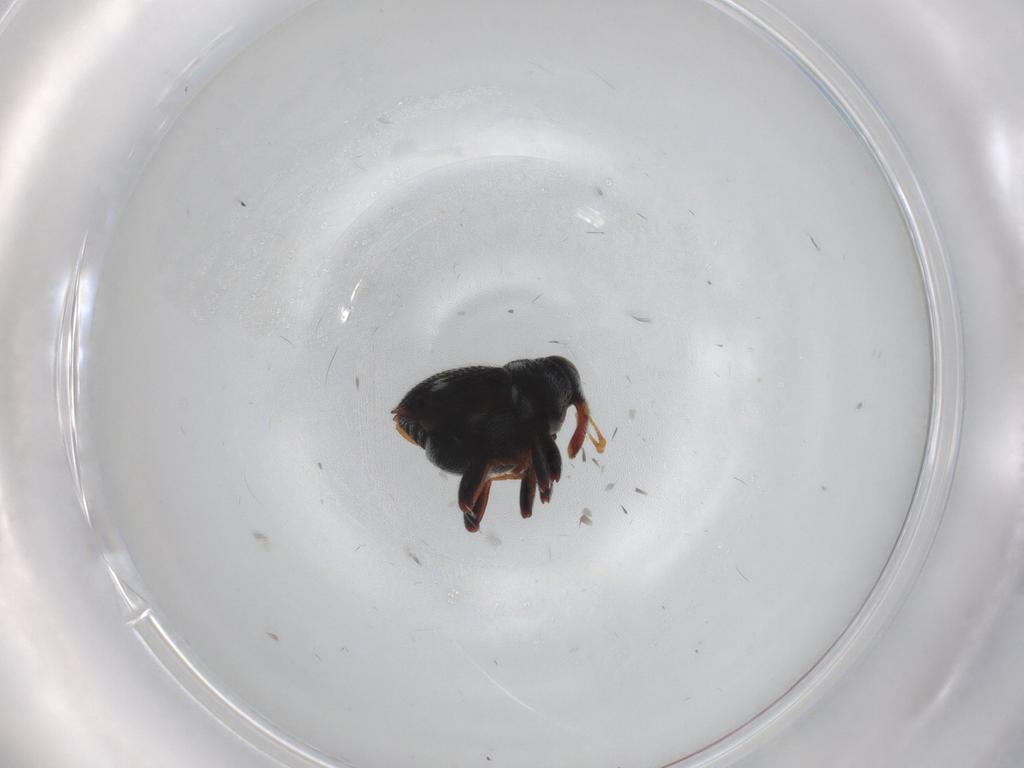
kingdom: Animalia
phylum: Arthropoda
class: Insecta
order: Coleoptera
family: Curculionidae
